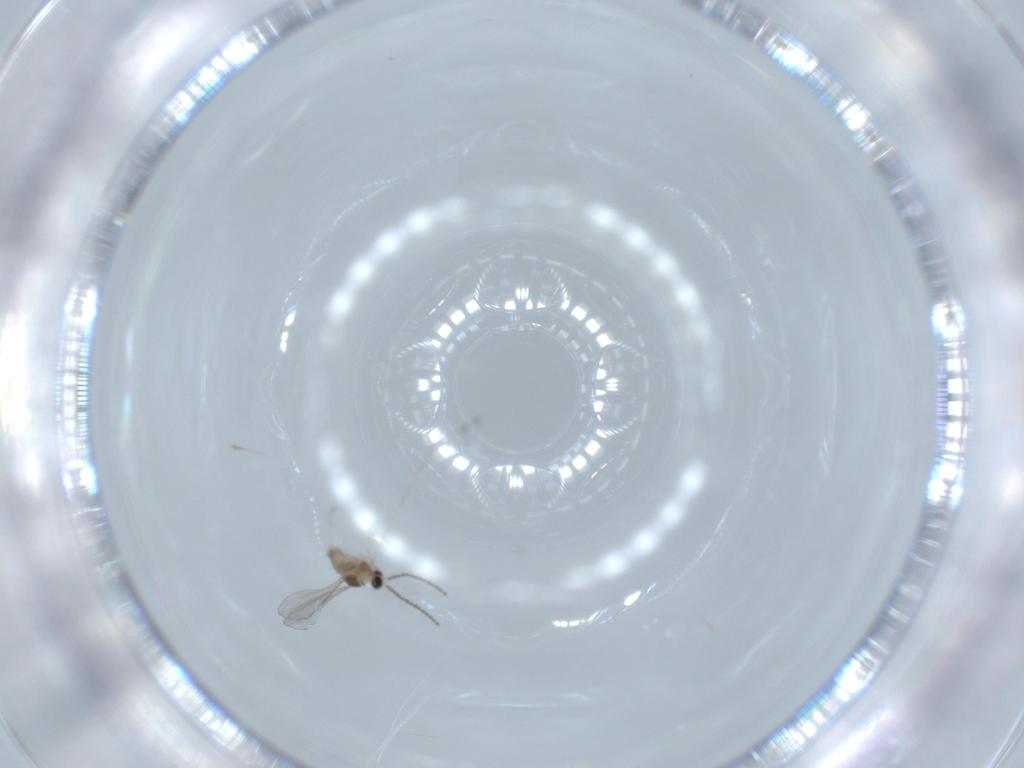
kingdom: Animalia
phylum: Arthropoda
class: Insecta
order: Diptera
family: Cecidomyiidae
